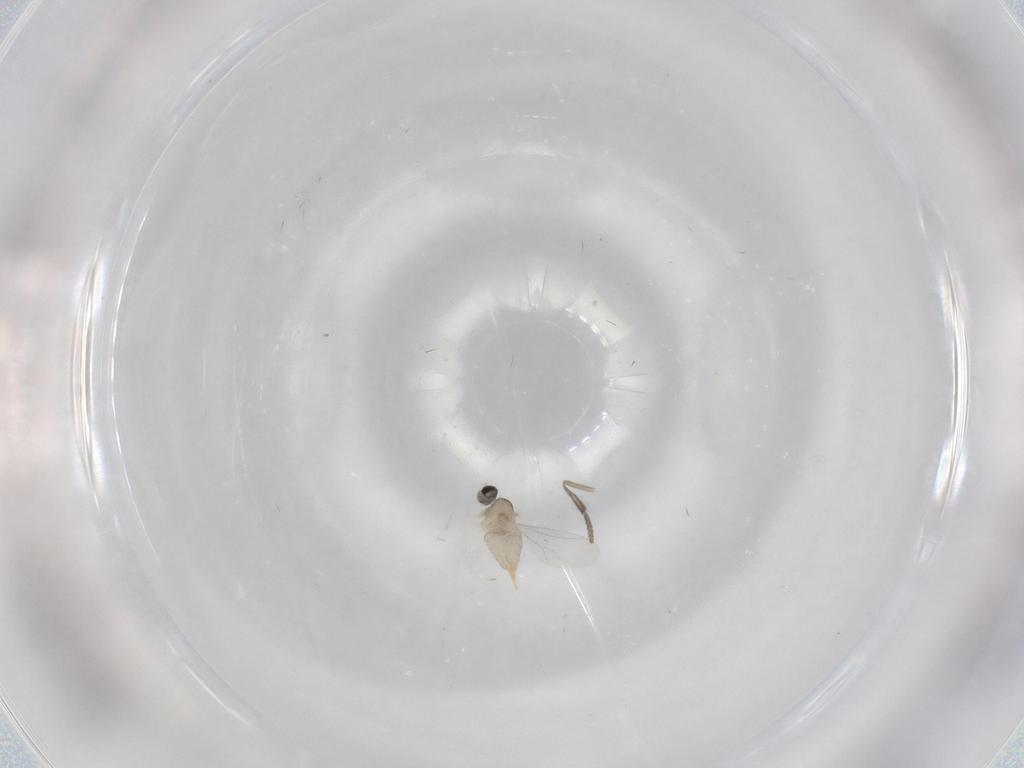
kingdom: Animalia
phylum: Arthropoda
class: Insecta
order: Diptera
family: Cecidomyiidae
